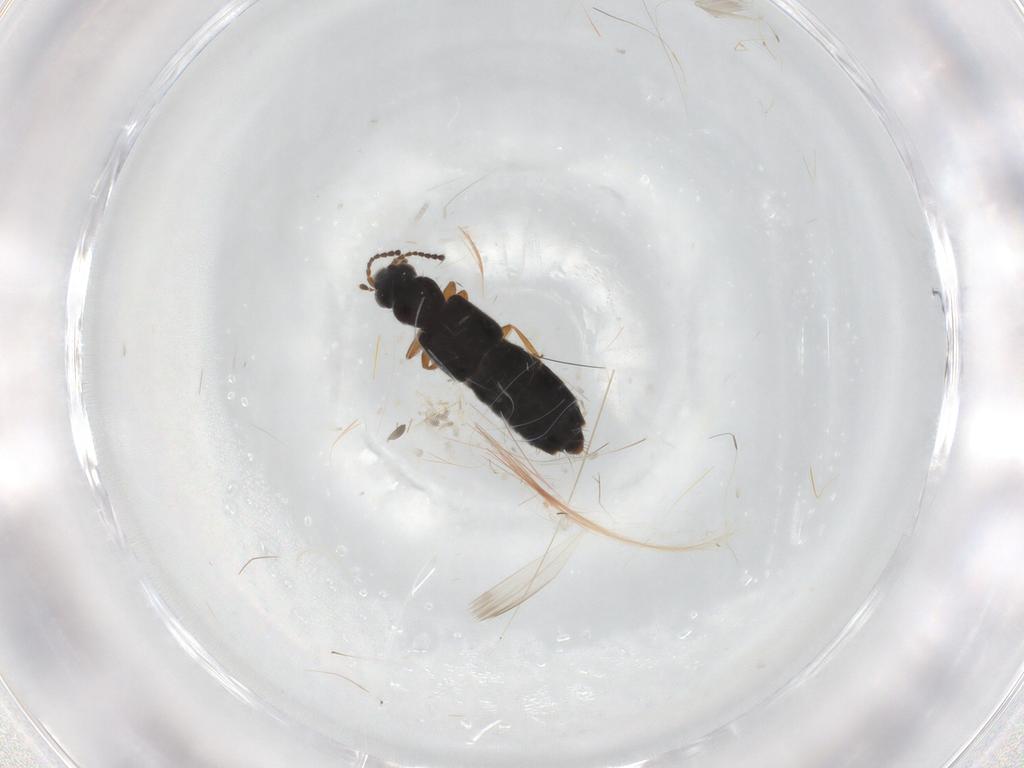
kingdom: Animalia
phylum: Arthropoda
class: Insecta
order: Coleoptera
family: Staphylinidae
